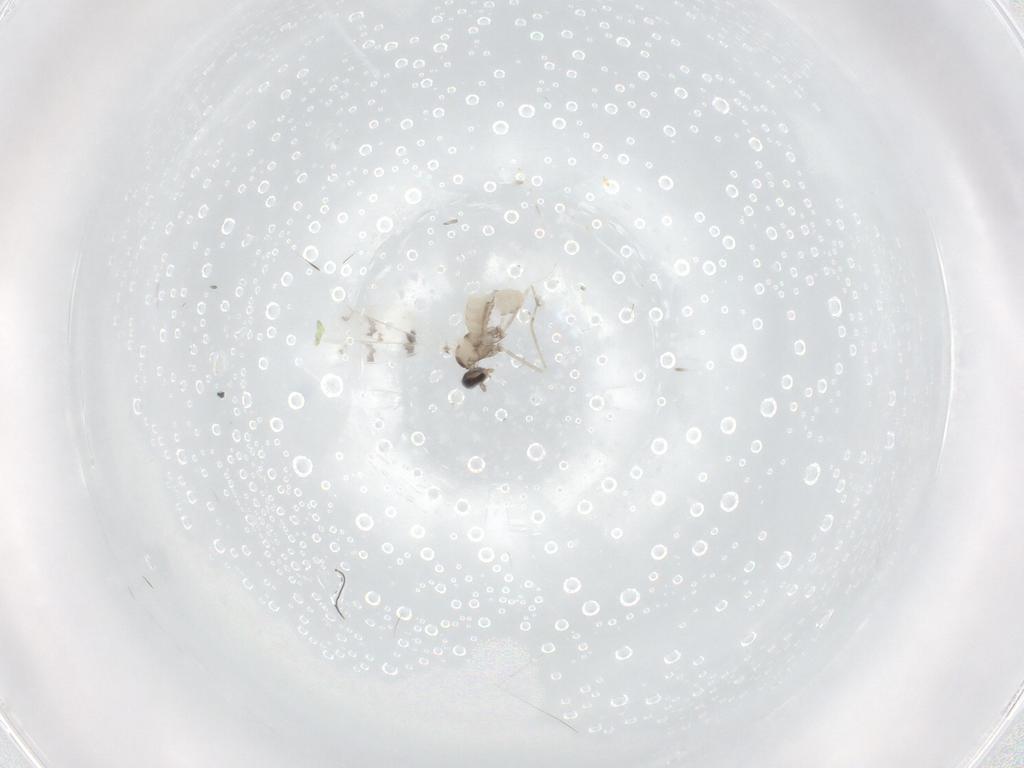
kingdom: Animalia
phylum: Arthropoda
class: Insecta
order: Diptera
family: Cecidomyiidae
